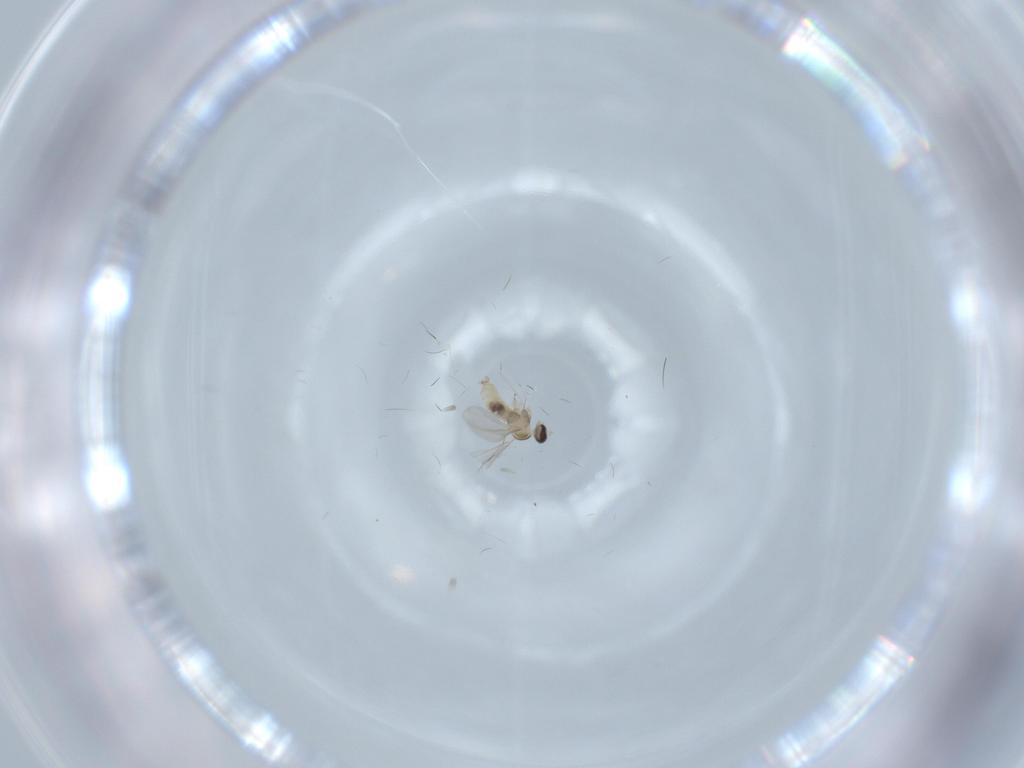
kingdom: Animalia
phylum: Arthropoda
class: Insecta
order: Diptera
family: Cecidomyiidae
